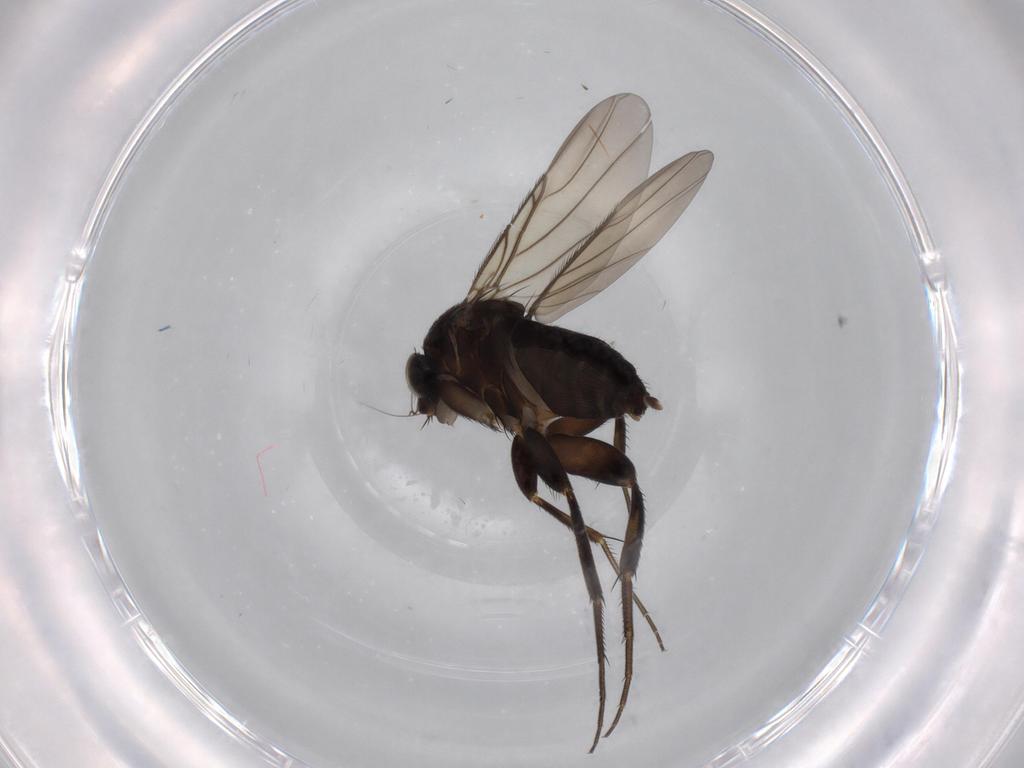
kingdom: Animalia
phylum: Arthropoda
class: Insecta
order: Diptera
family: Phoridae
